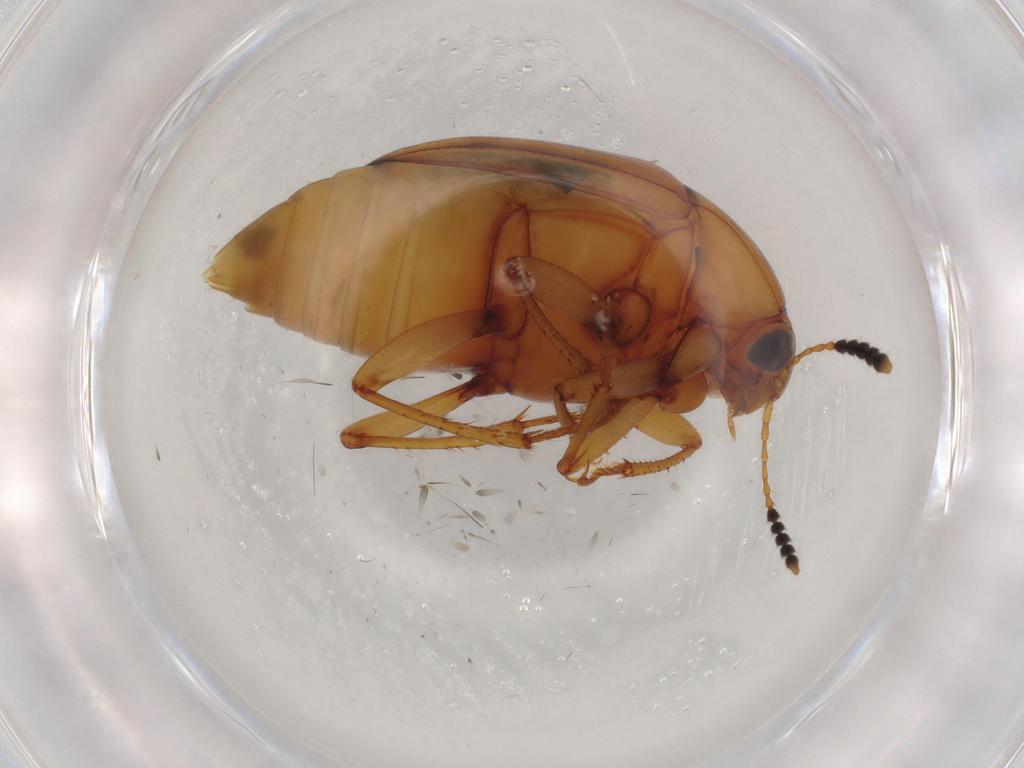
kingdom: Animalia
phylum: Arthropoda
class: Insecta
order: Coleoptera
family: Staphylinidae
